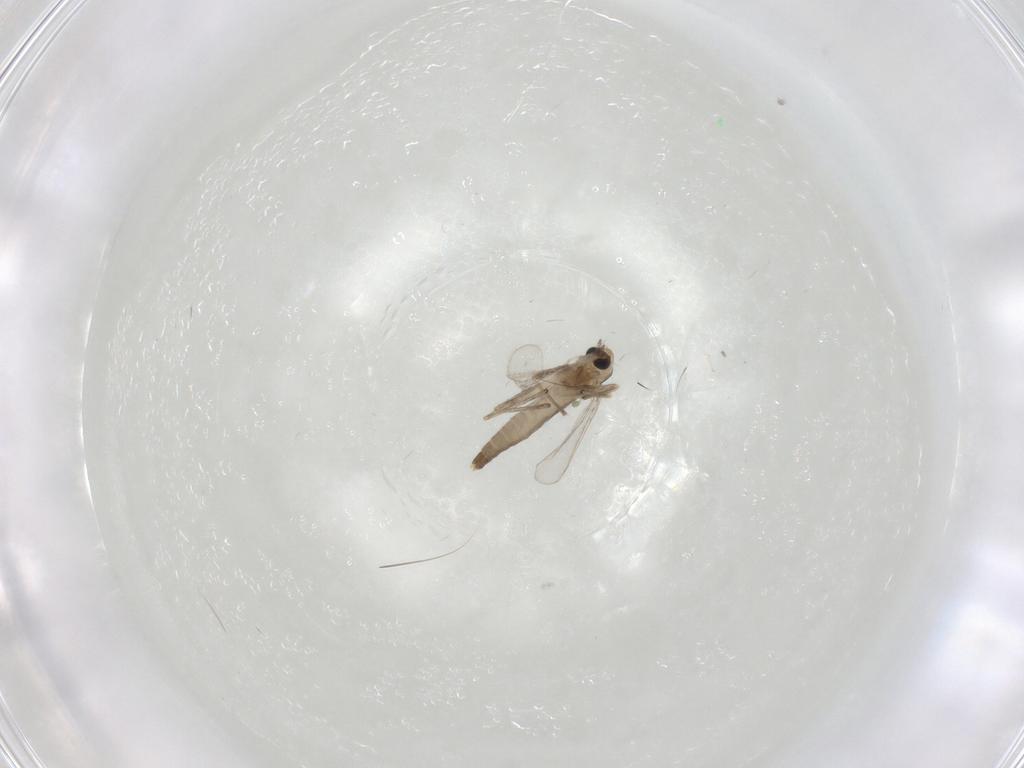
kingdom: Animalia
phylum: Arthropoda
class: Insecta
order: Diptera
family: Chironomidae
